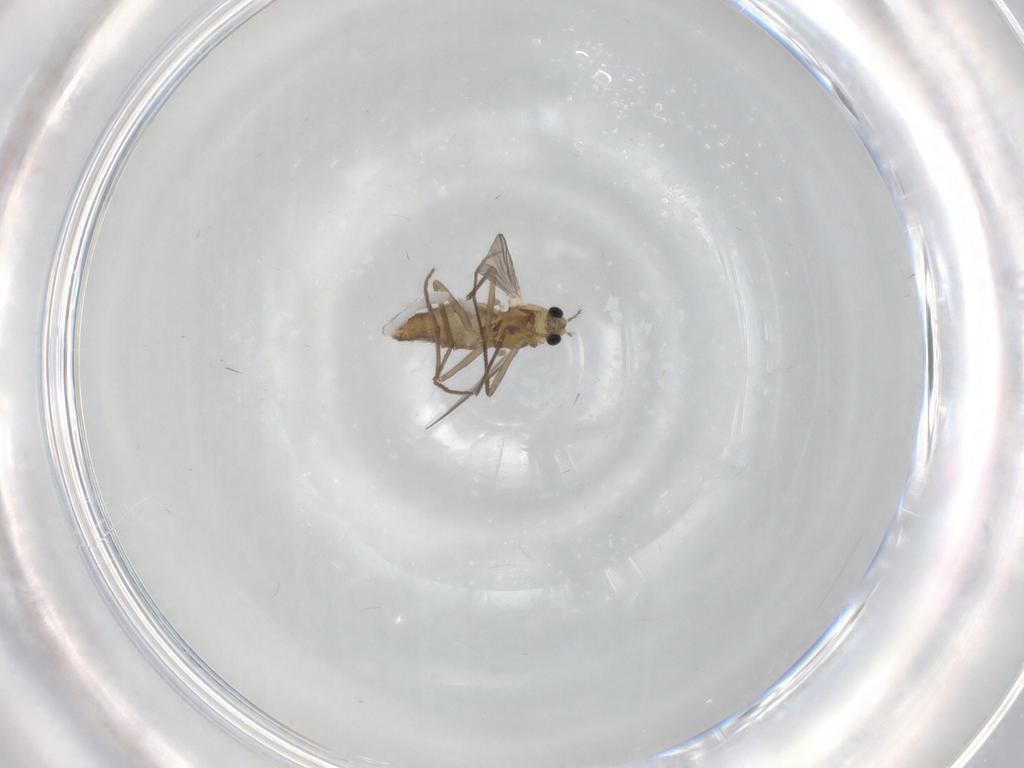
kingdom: Animalia
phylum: Arthropoda
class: Insecta
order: Diptera
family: Chironomidae
